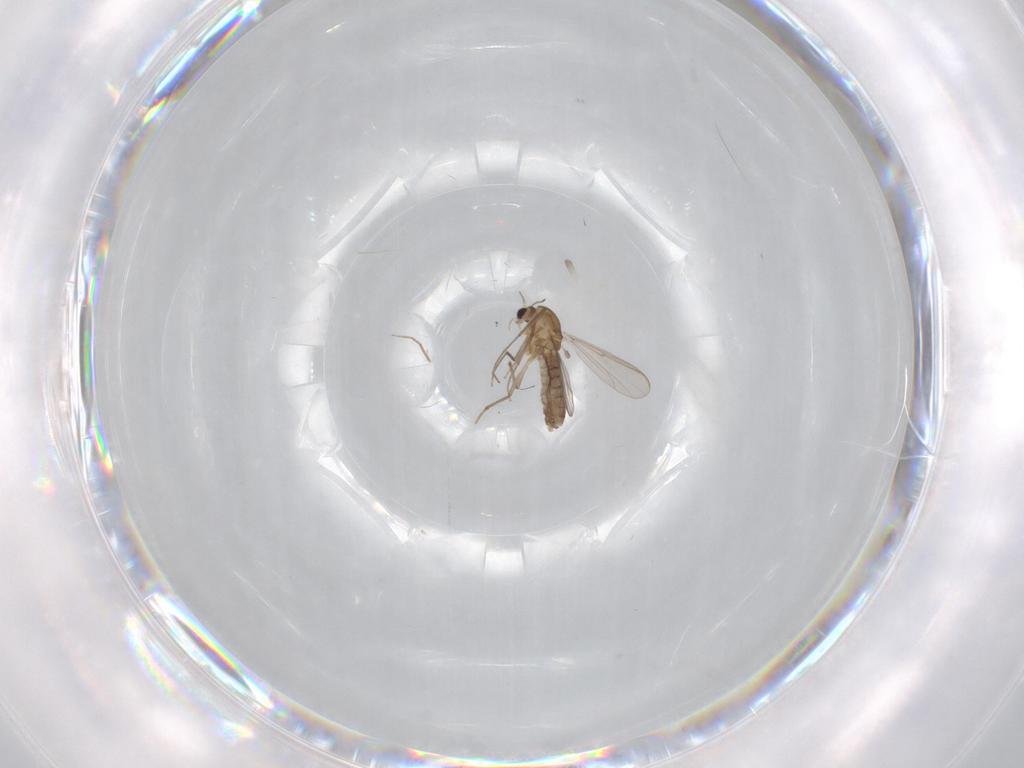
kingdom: Animalia
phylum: Arthropoda
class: Insecta
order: Diptera
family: Chironomidae
